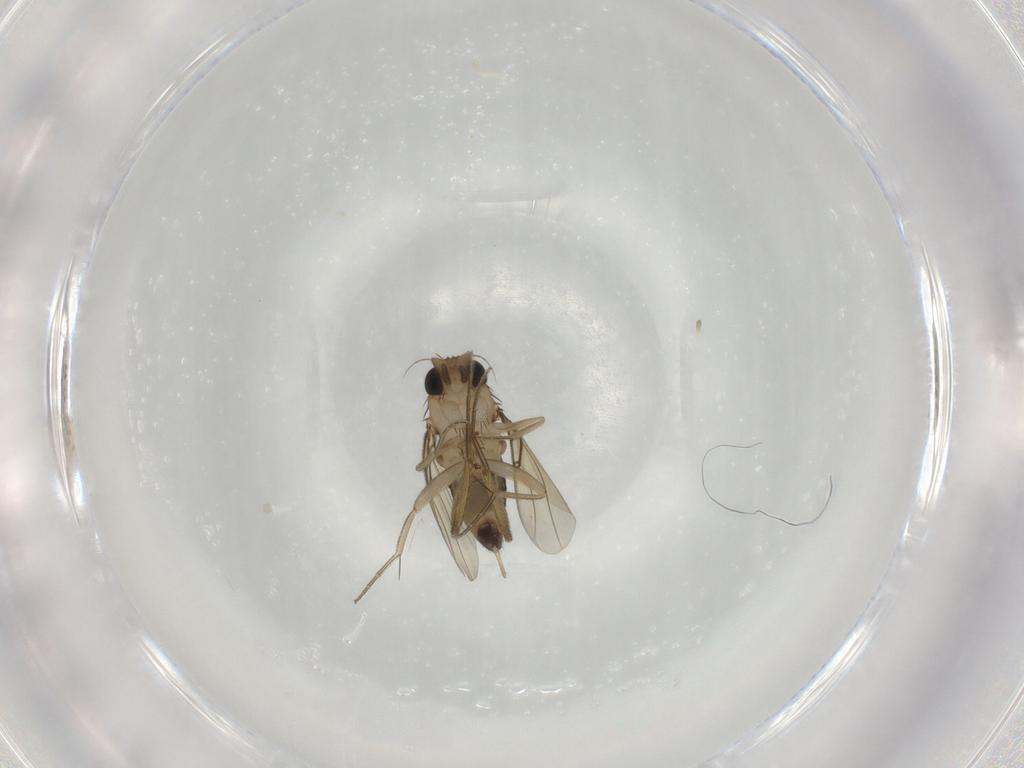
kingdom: Animalia
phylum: Arthropoda
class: Insecta
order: Diptera
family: Phoridae
